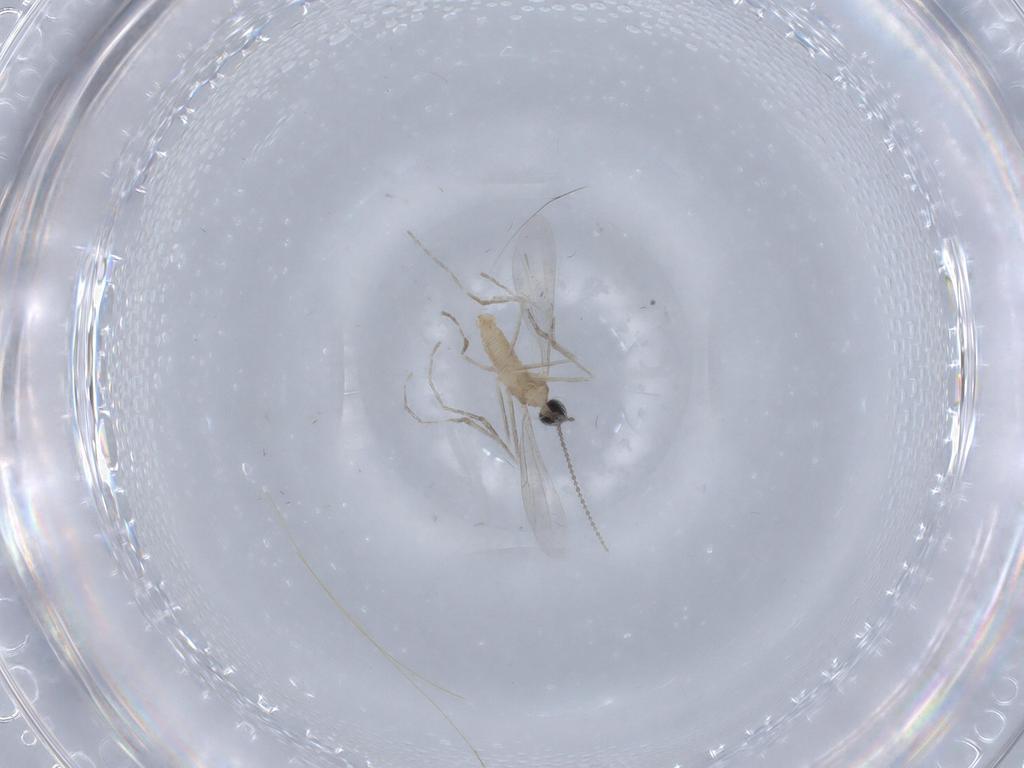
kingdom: Animalia
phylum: Arthropoda
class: Insecta
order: Diptera
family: Cecidomyiidae
